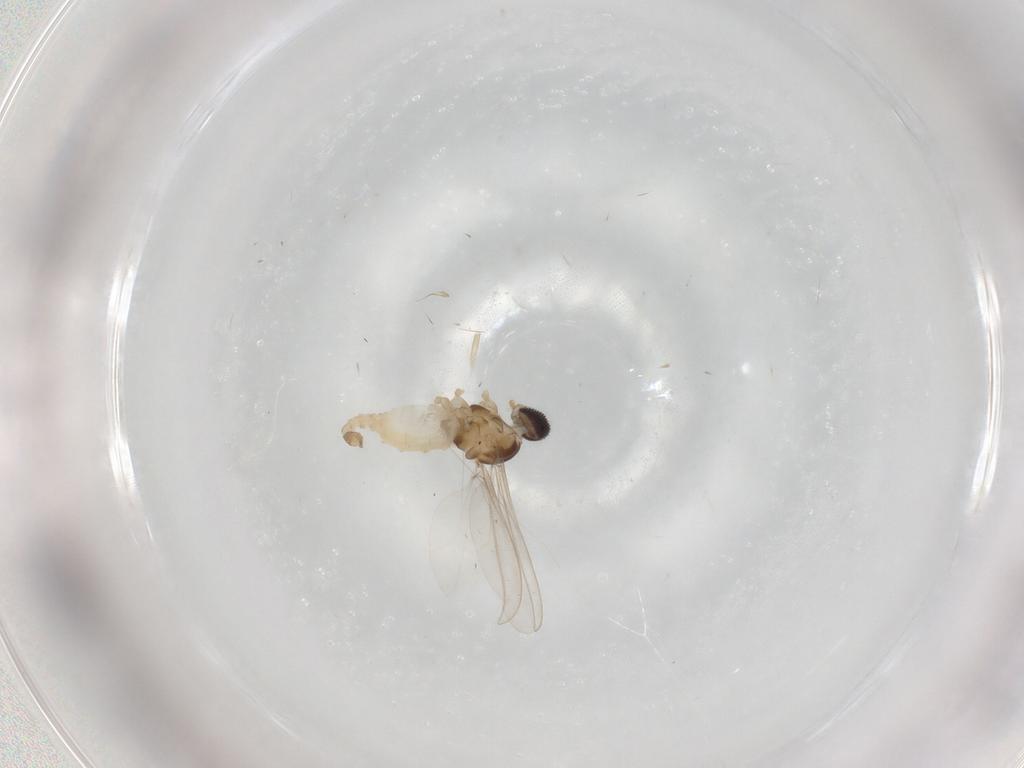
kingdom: Animalia
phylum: Arthropoda
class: Insecta
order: Diptera
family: Cecidomyiidae
